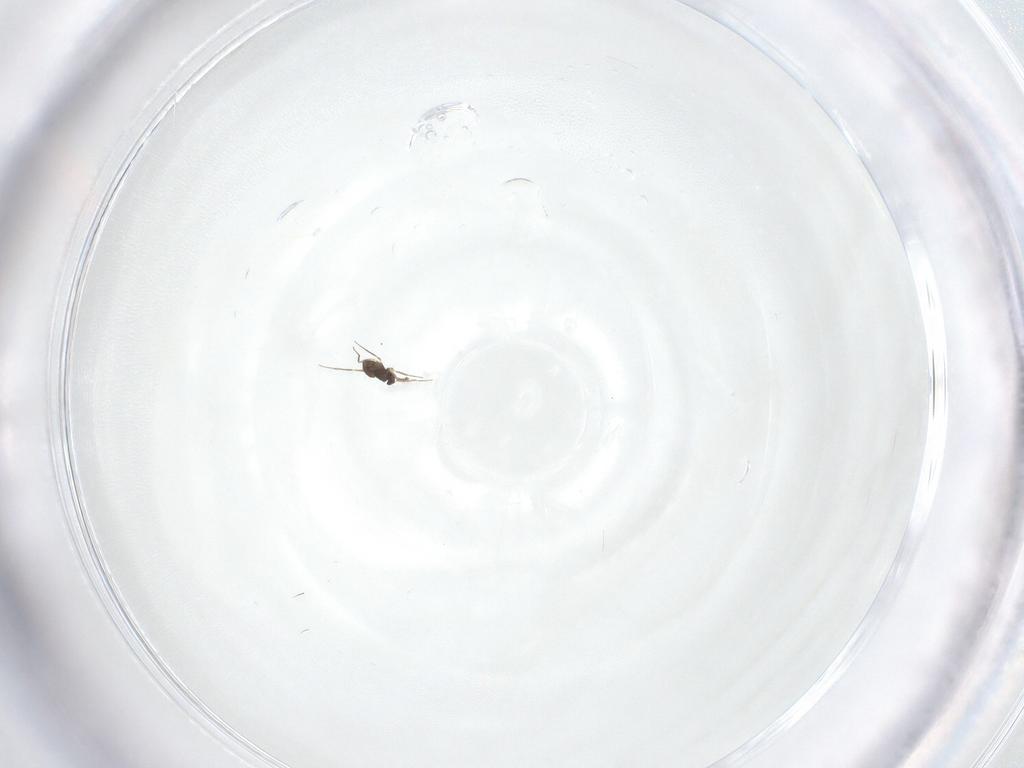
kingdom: Animalia
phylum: Arthropoda
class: Insecta
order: Hymenoptera
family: Mymaridae
